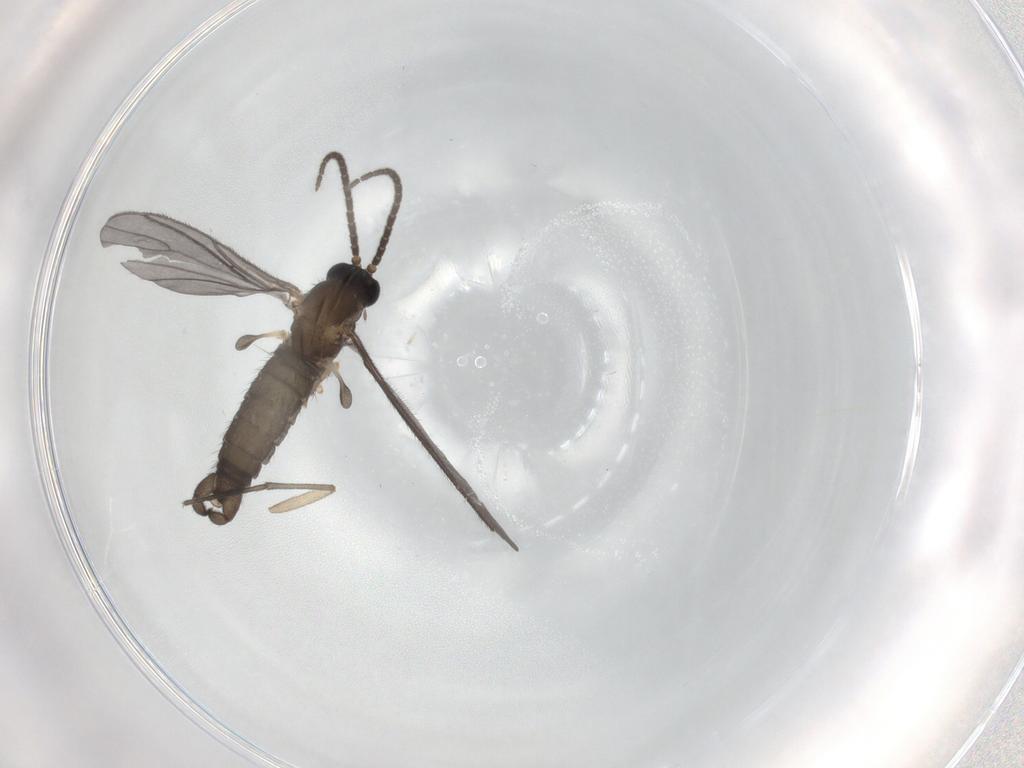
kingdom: Animalia
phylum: Arthropoda
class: Insecta
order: Diptera
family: Sciaridae
